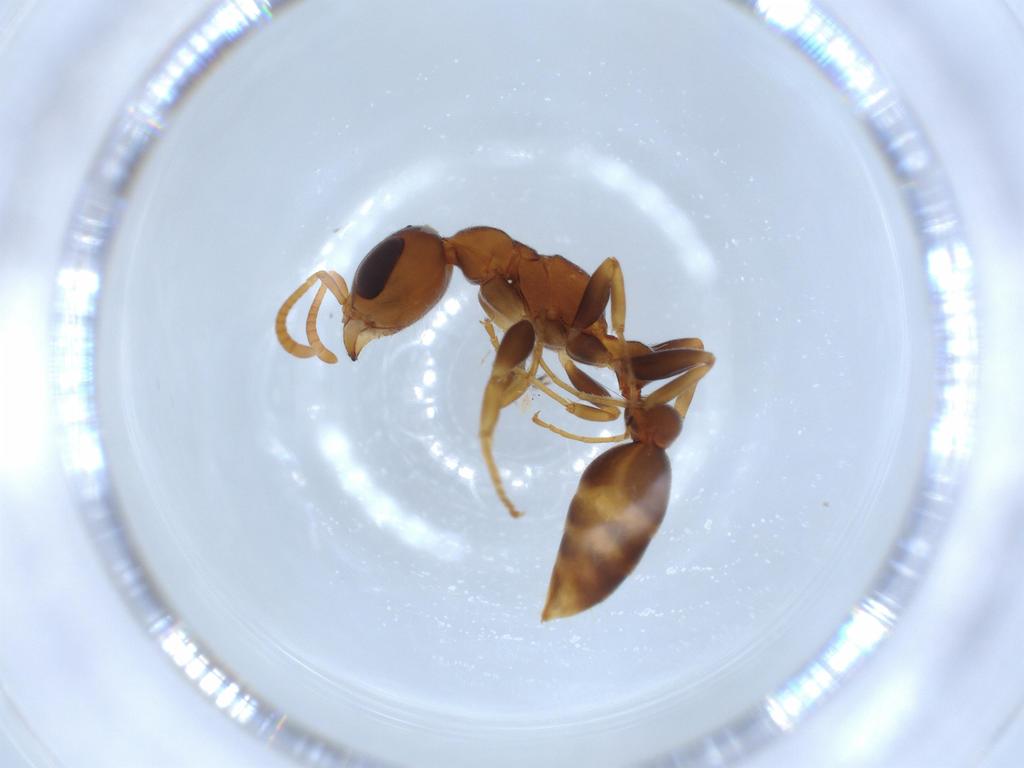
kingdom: Animalia
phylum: Arthropoda
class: Insecta
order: Hymenoptera
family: Formicidae
